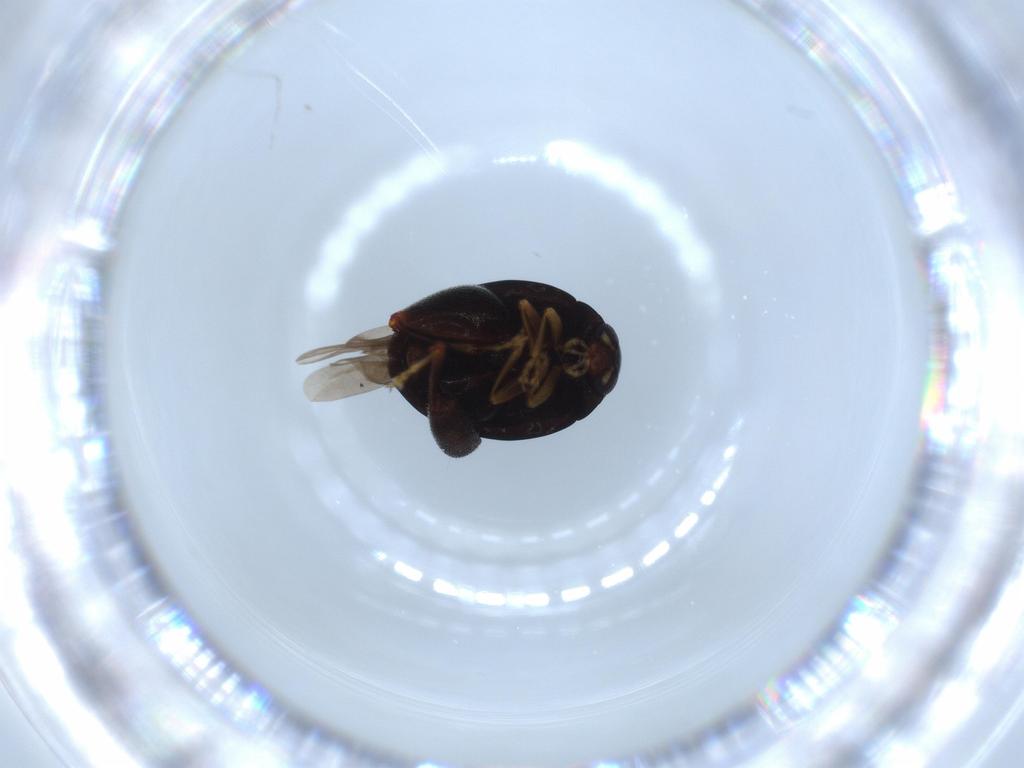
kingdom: Animalia
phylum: Arthropoda
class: Insecta
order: Coleoptera
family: Chrysomelidae
